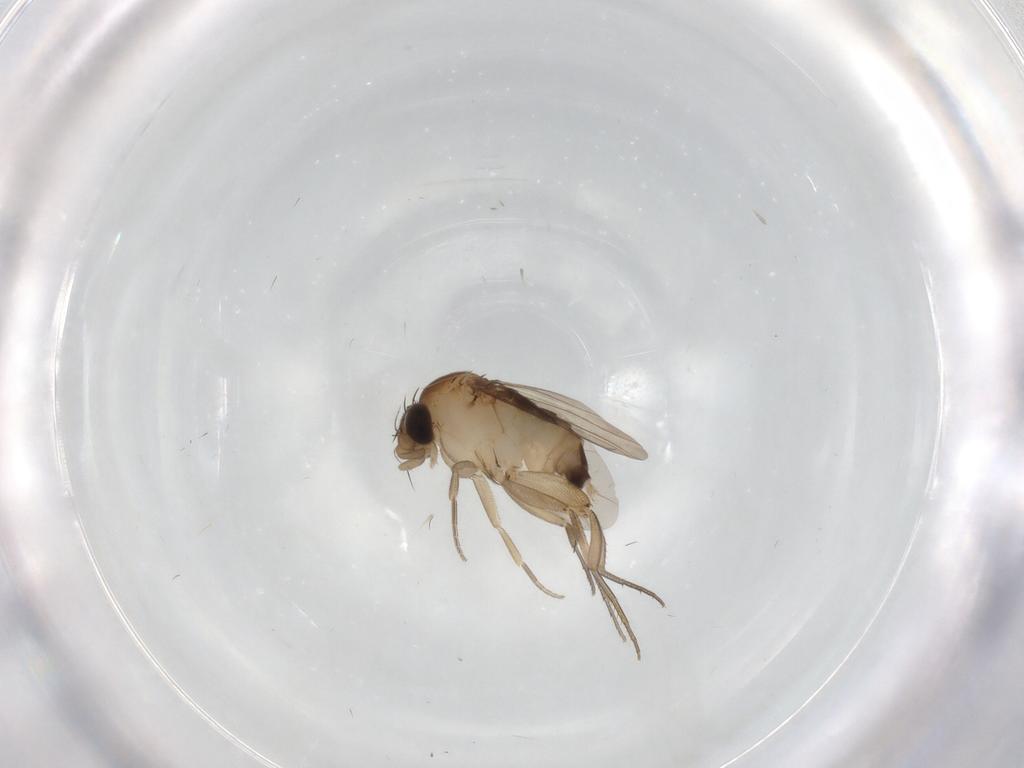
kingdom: Animalia
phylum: Arthropoda
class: Insecta
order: Diptera
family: Phoridae
